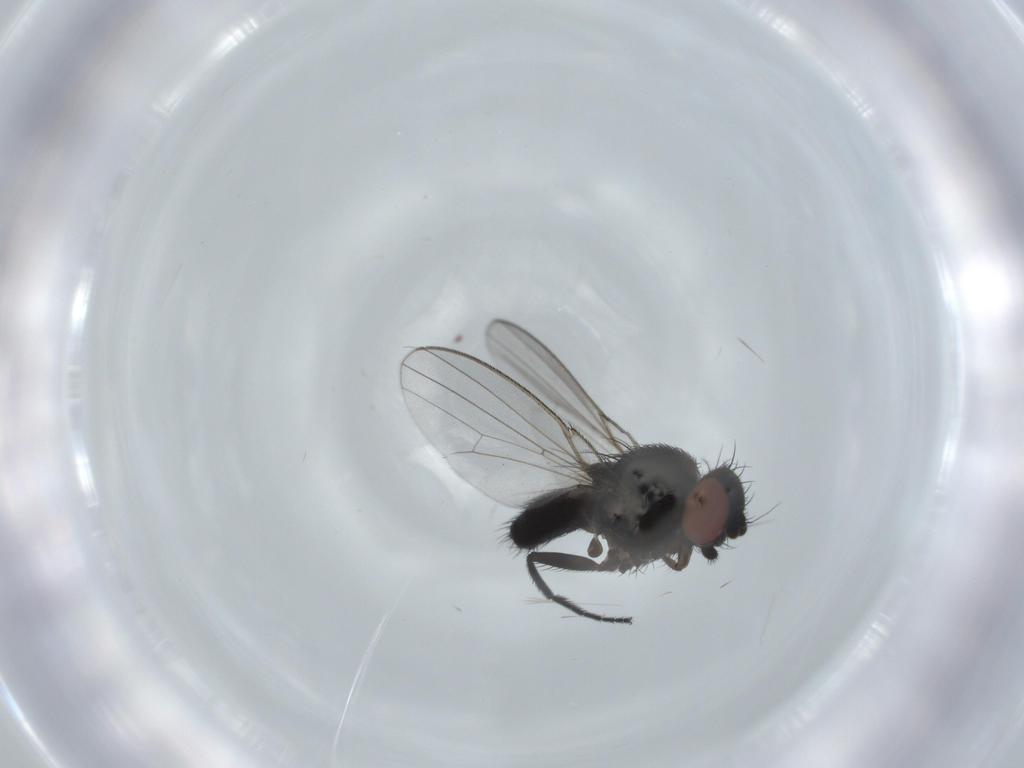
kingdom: Animalia
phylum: Arthropoda
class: Insecta
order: Diptera
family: Milichiidae
